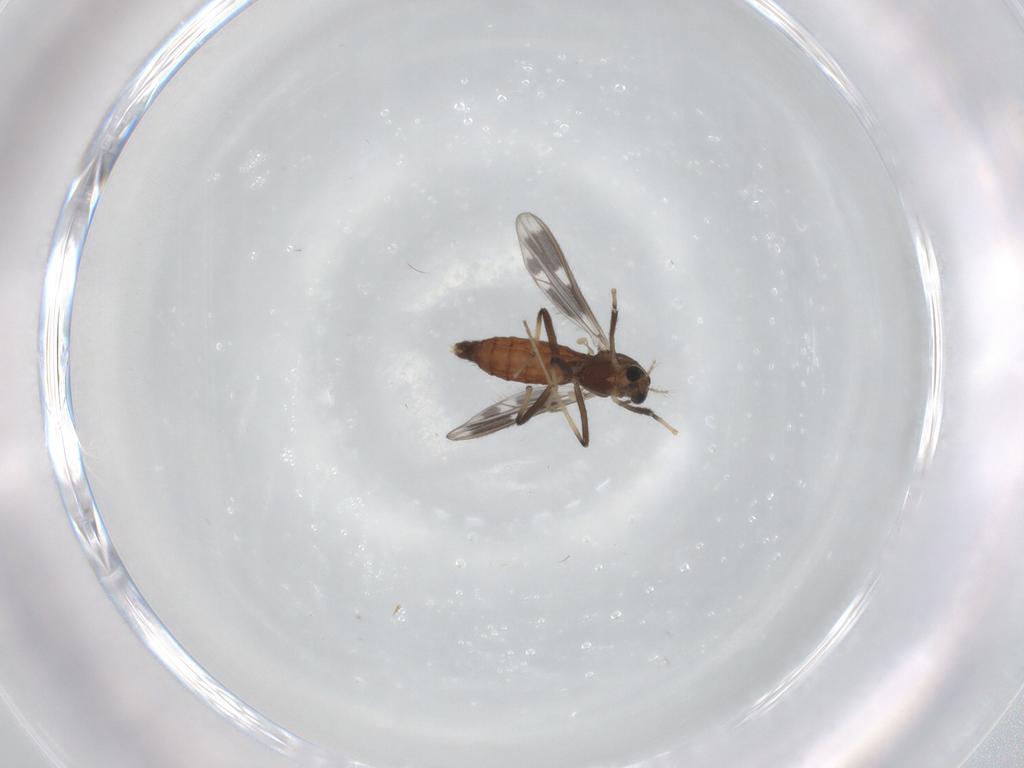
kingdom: Animalia
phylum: Arthropoda
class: Insecta
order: Diptera
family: Chironomidae
